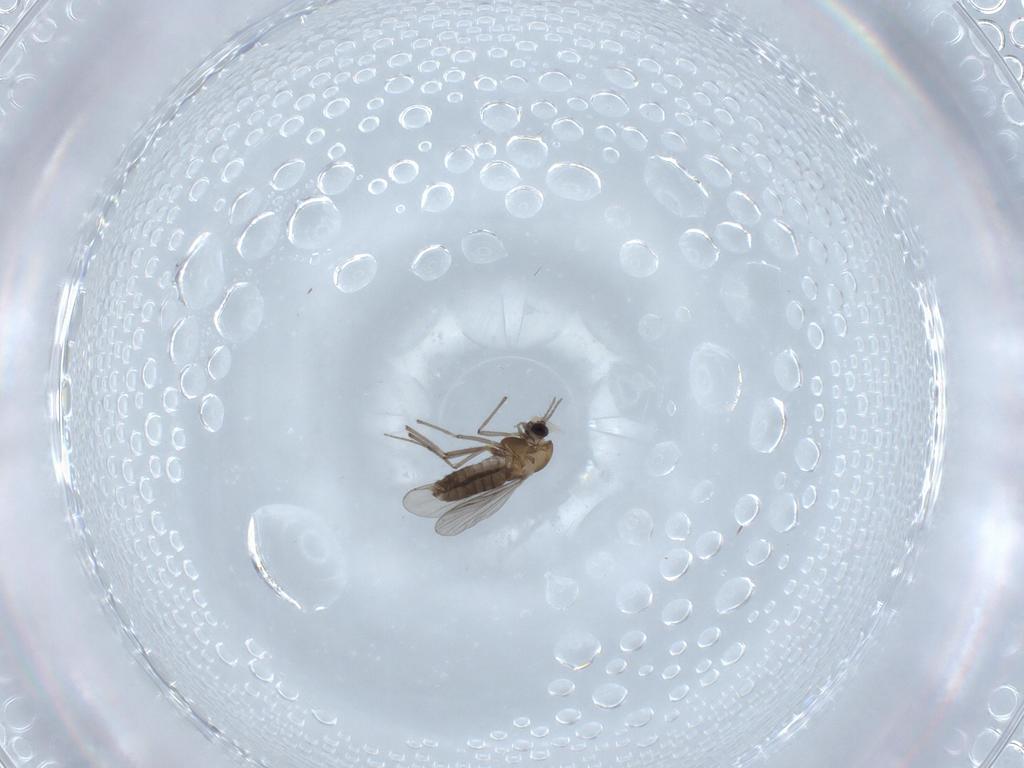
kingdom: Animalia
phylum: Arthropoda
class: Insecta
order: Diptera
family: Chironomidae
